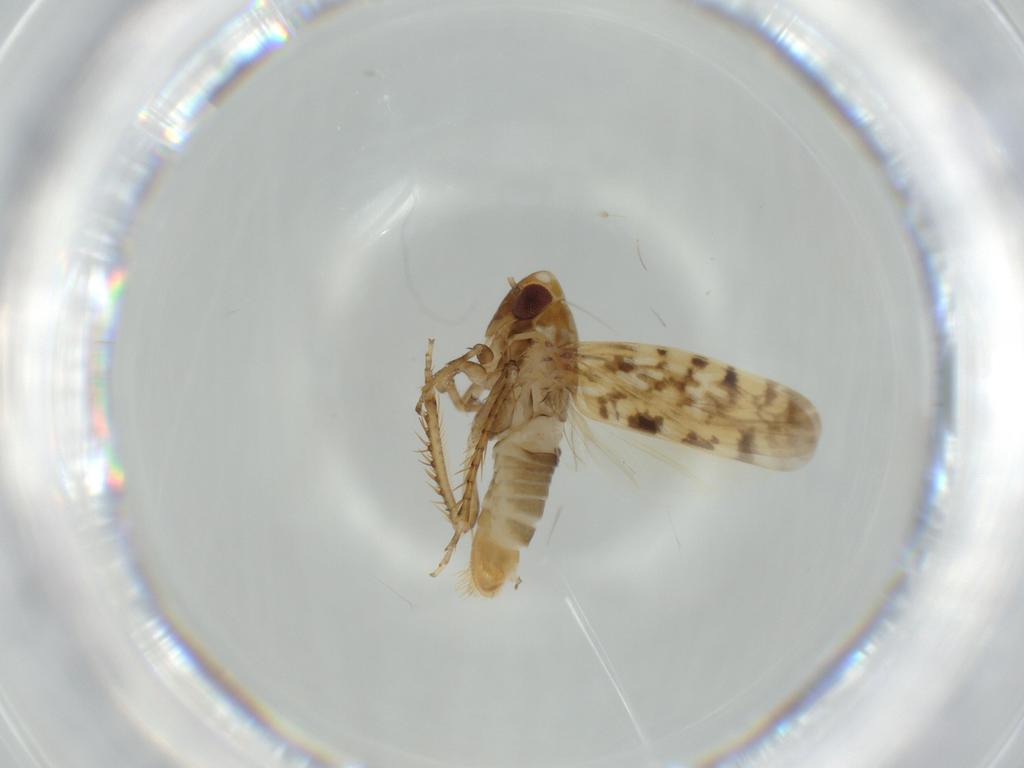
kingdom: Animalia
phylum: Arthropoda
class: Insecta
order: Hemiptera
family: Cicadellidae
